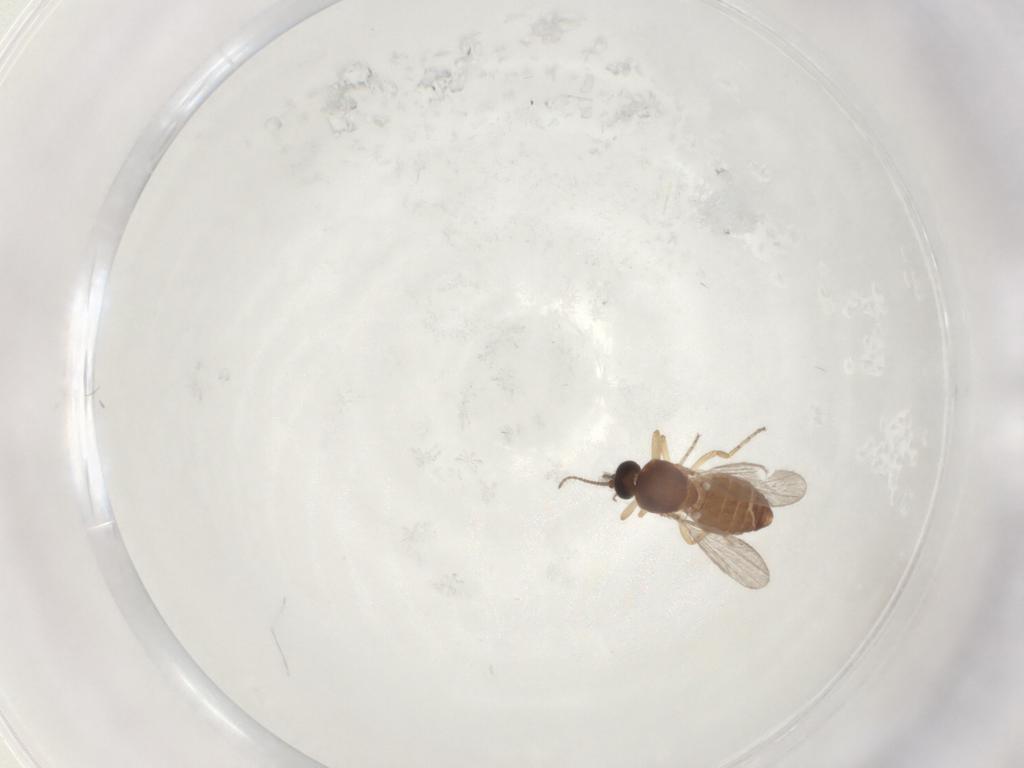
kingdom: Animalia
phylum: Arthropoda
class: Insecta
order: Diptera
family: Ceratopogonidae
